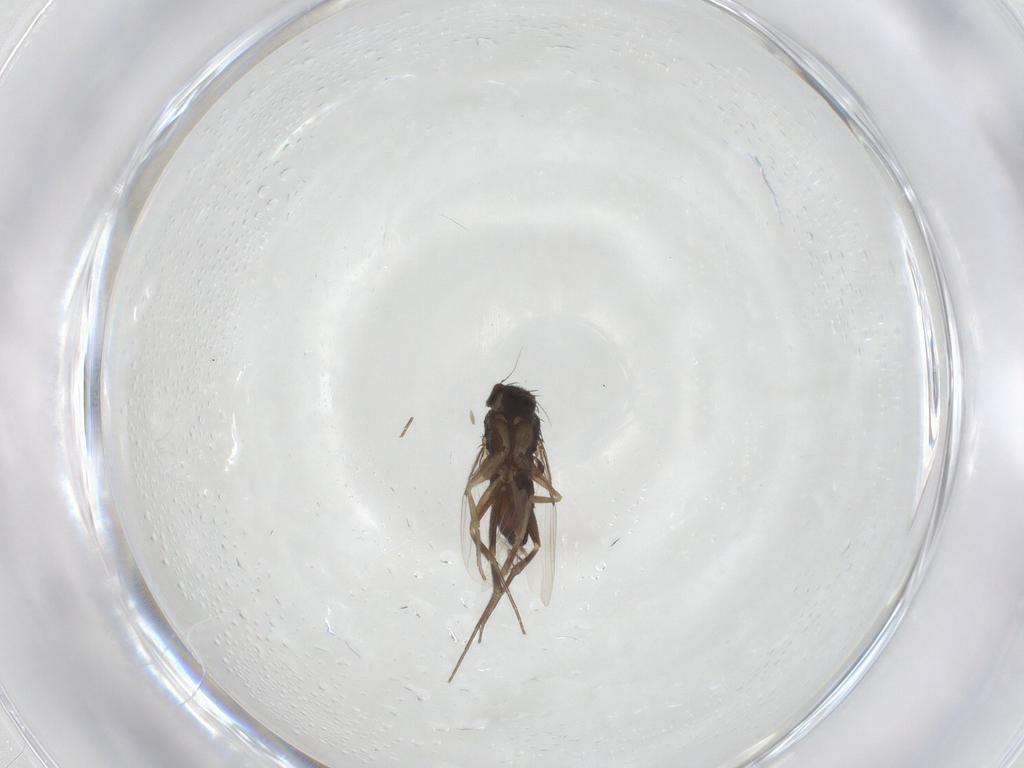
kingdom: Animalia
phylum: Arthropoda
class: Insecta
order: Diptera
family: Phoridae
